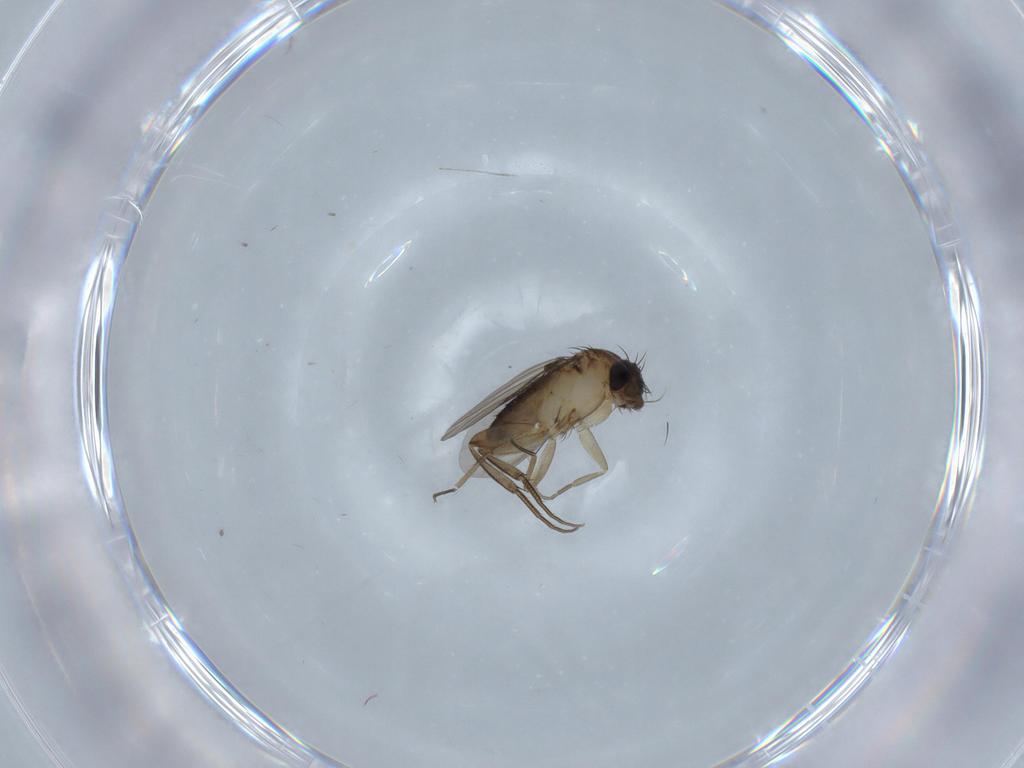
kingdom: Animalia
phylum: Arthropoda
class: Insecta
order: Diptera
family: Phoridae
